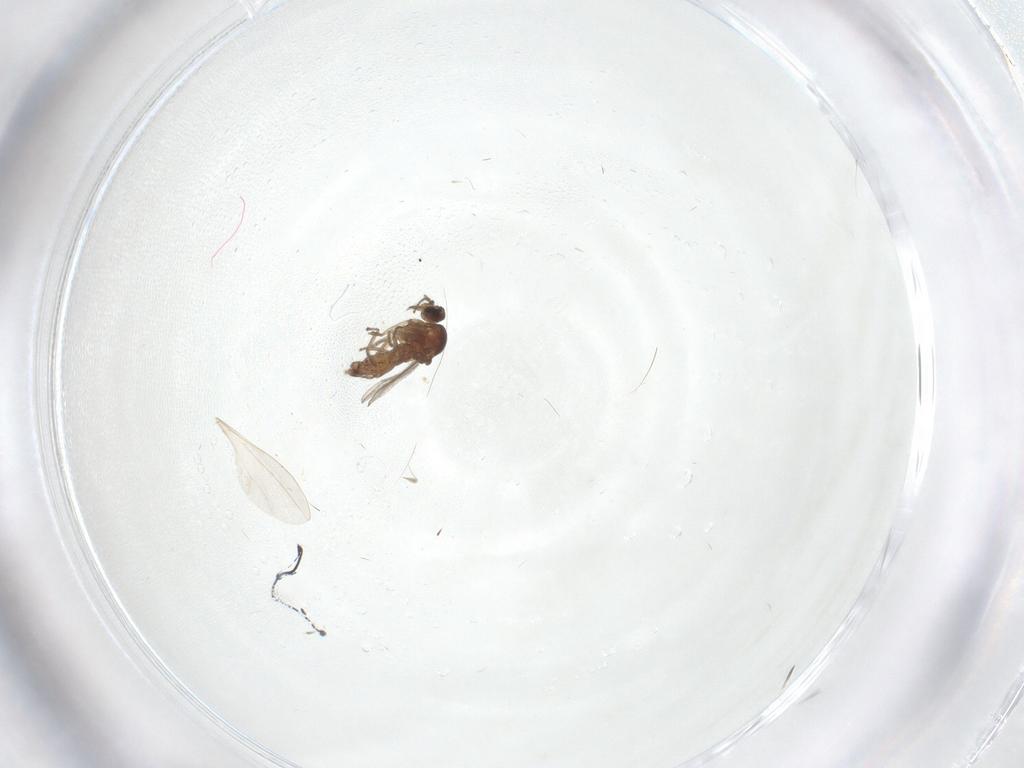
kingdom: Animalia
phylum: Arthropoda
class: Insecta
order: Diptera
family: Cecidomyiidae
